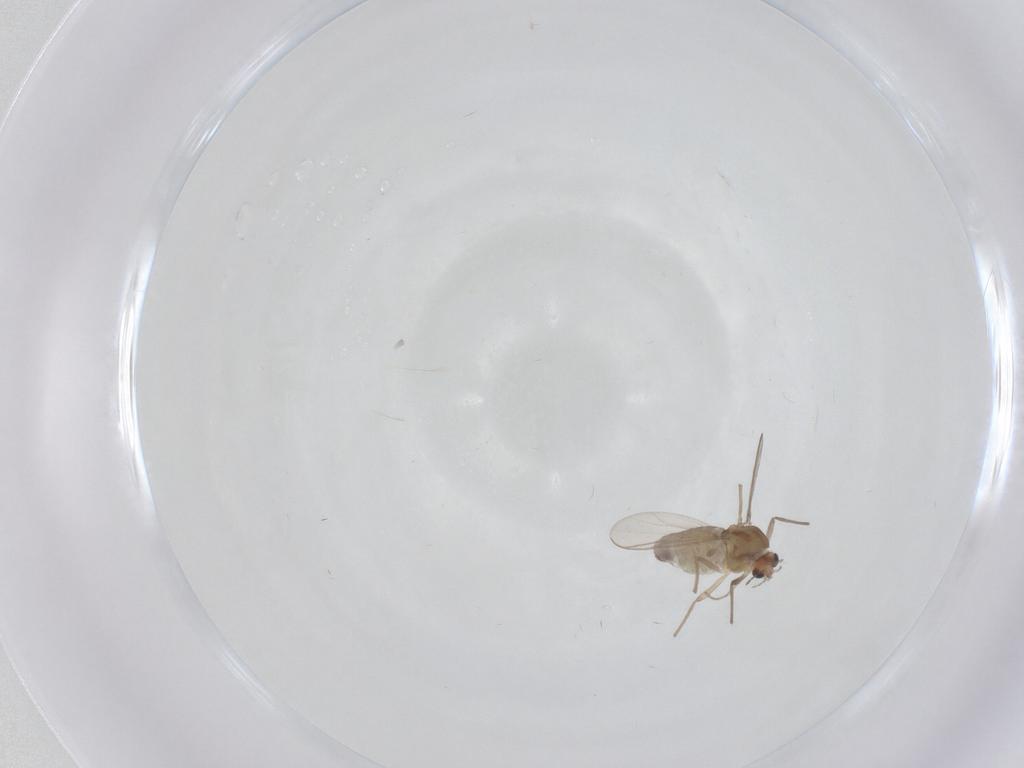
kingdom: Animalia
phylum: Arthropoda
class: Insecta
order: Diptera
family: Chironomidae
